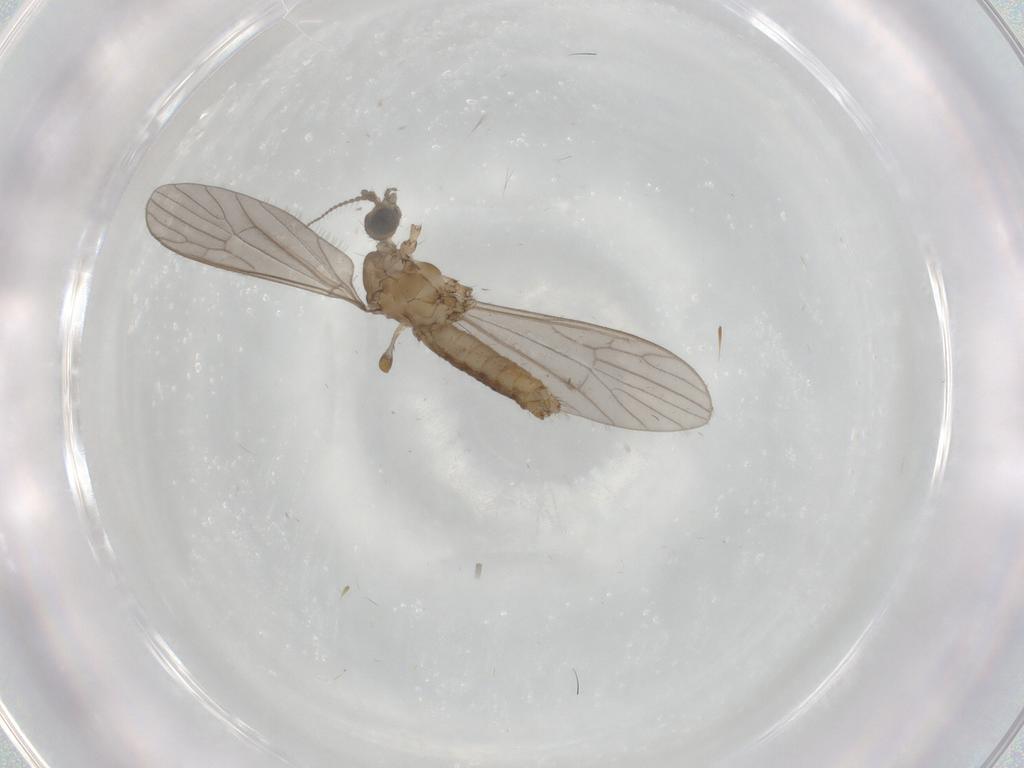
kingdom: Animalia
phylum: Arthropoda
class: Insecta
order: Diptera
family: Limoniidae
